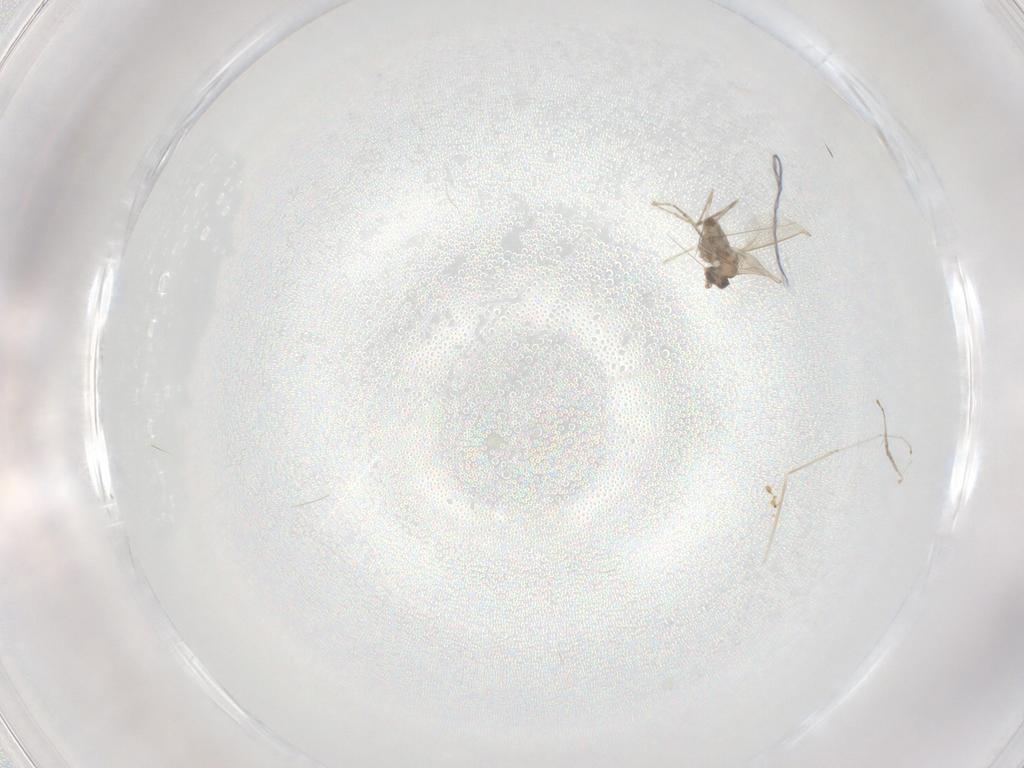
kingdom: Animalia
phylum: Arthropoda
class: Insecta
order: Diptera
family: Cecidomyiidae
